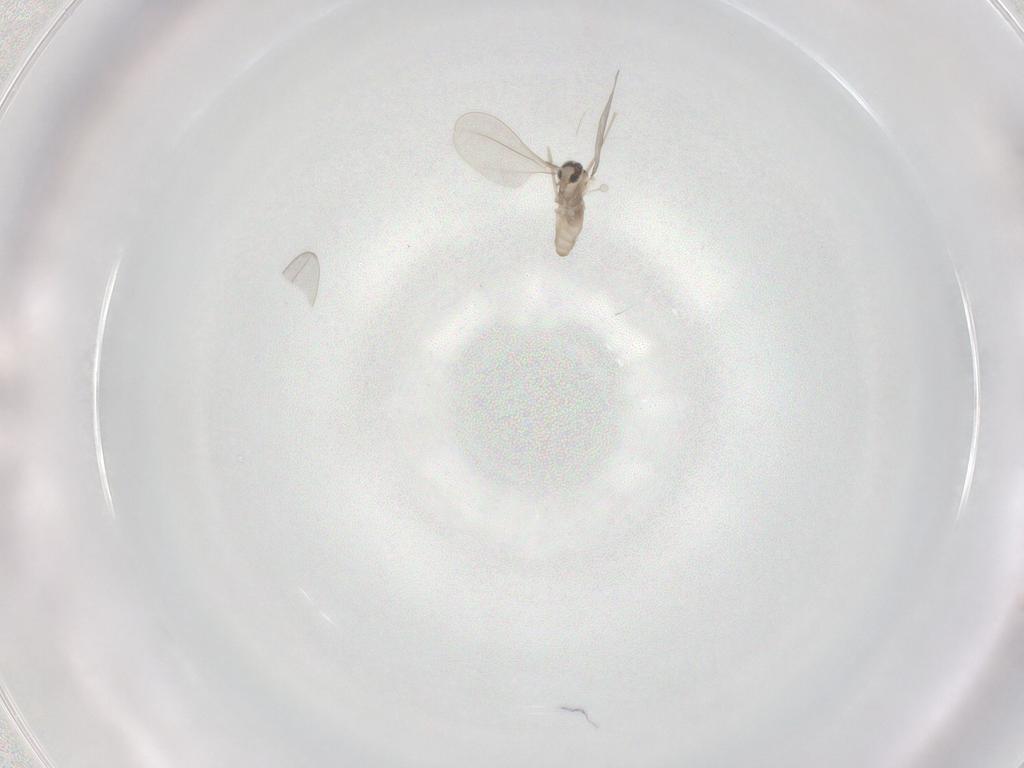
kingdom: Animalia
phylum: Arthropoda
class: Insecta
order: Diptera
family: Cecidomyiidae
